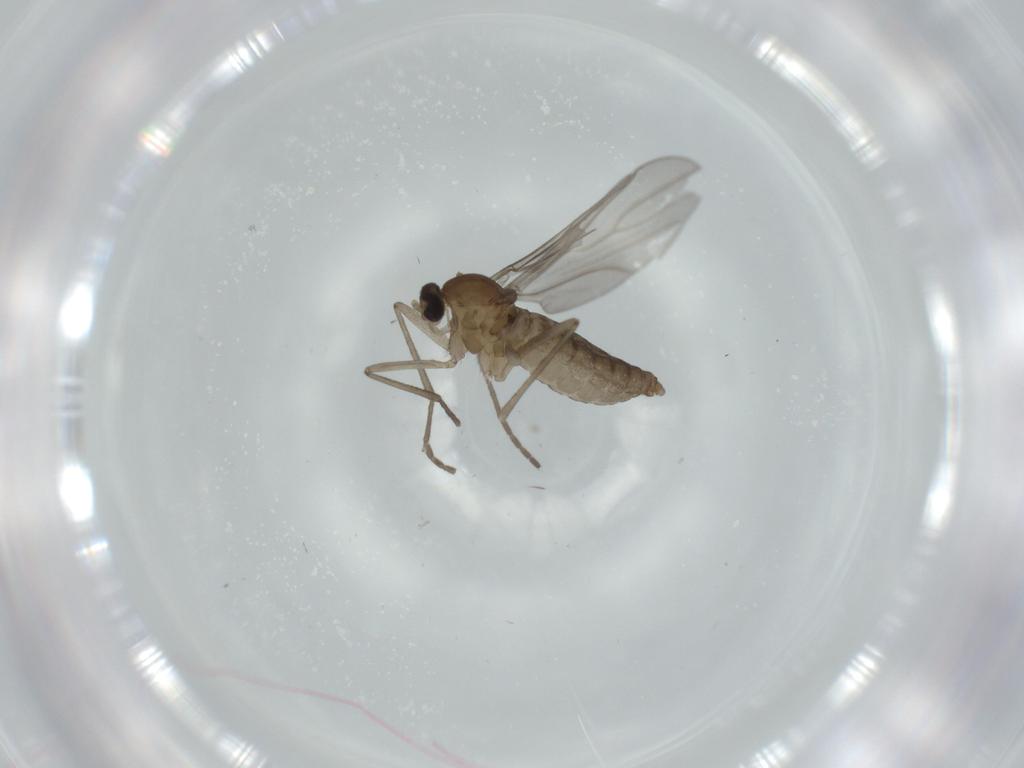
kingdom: Animalia
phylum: Arthropoda
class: Insecta
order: Diptera
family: Cecidomyiidae
